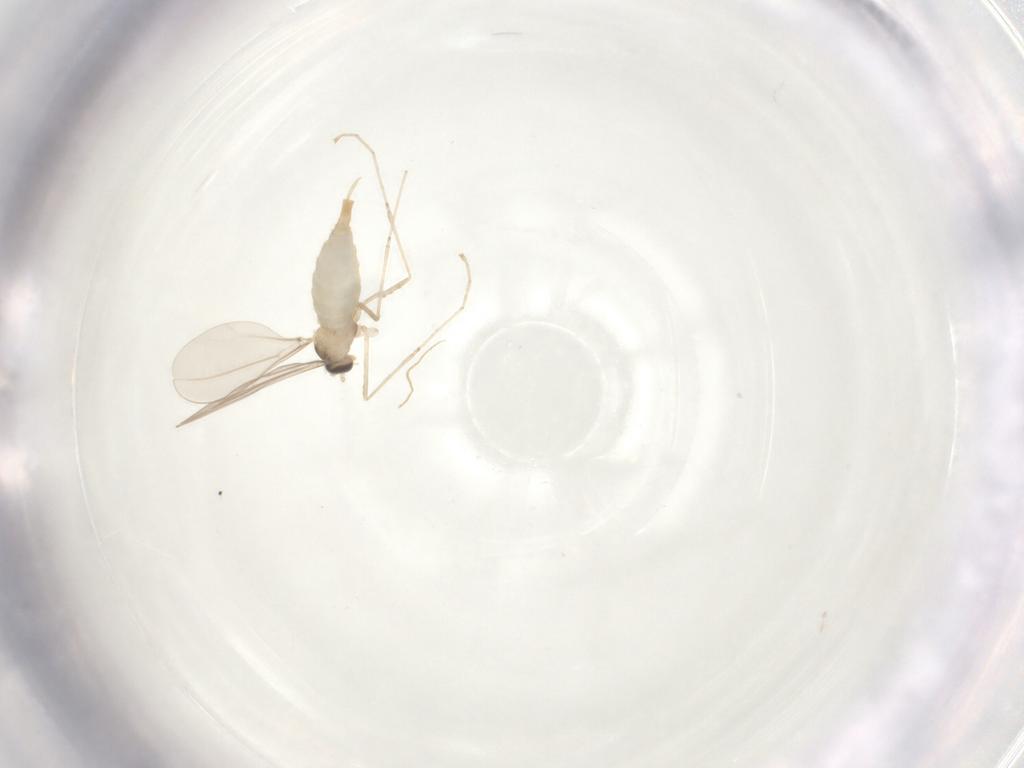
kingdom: Animalia
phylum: Arthropoda
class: Insecta
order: Diptera
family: Cecidomyiidae
